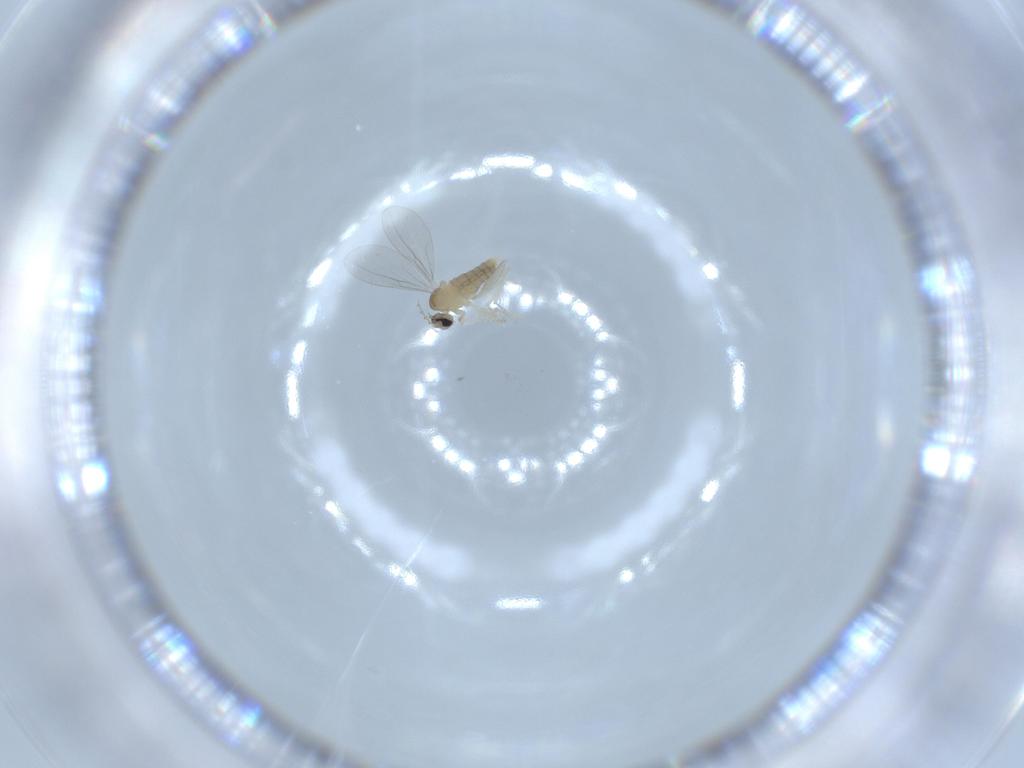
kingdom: Animalia
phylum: Arthropoda
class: Insecta
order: Diptera
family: Cecidomyiidae
